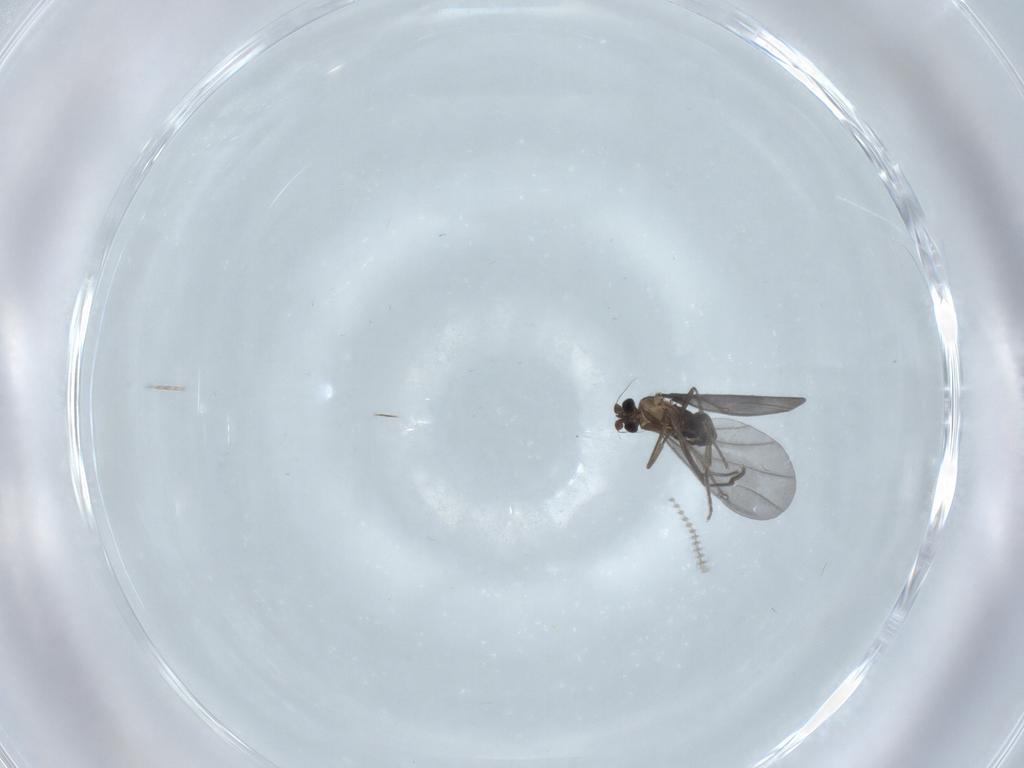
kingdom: Animalia
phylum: Arthropoda
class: Insecta
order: Diptera
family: Phoridae
